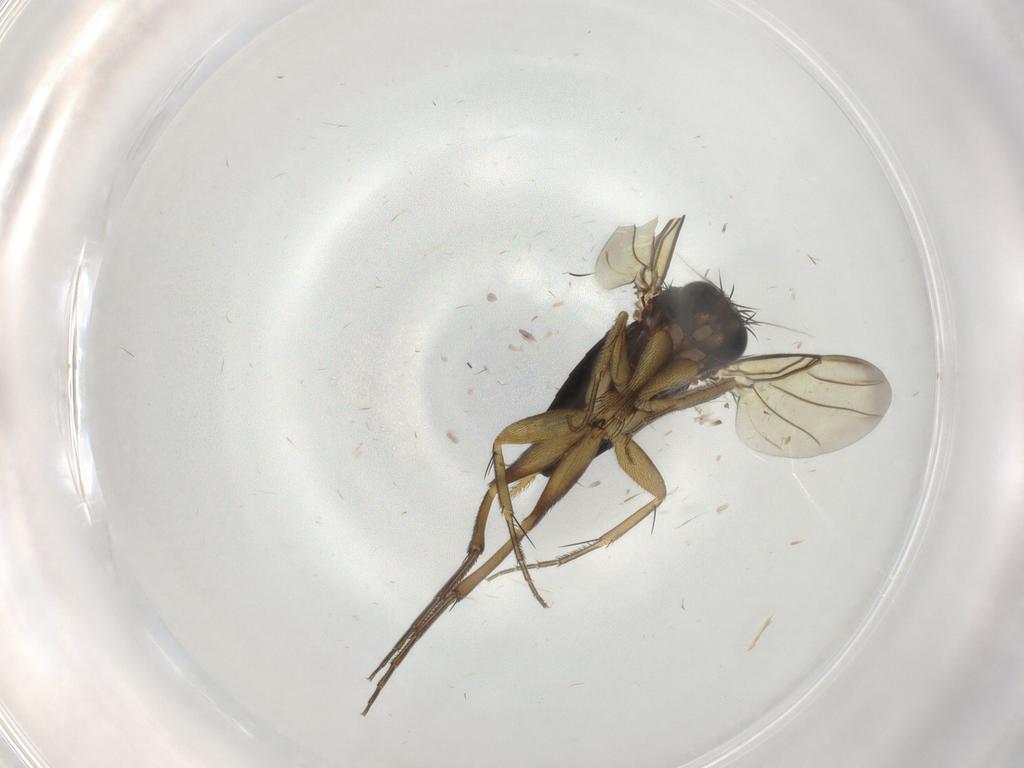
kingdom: Animalia
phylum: Arthropoda
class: Insecta
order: Diptera
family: Phoridae
